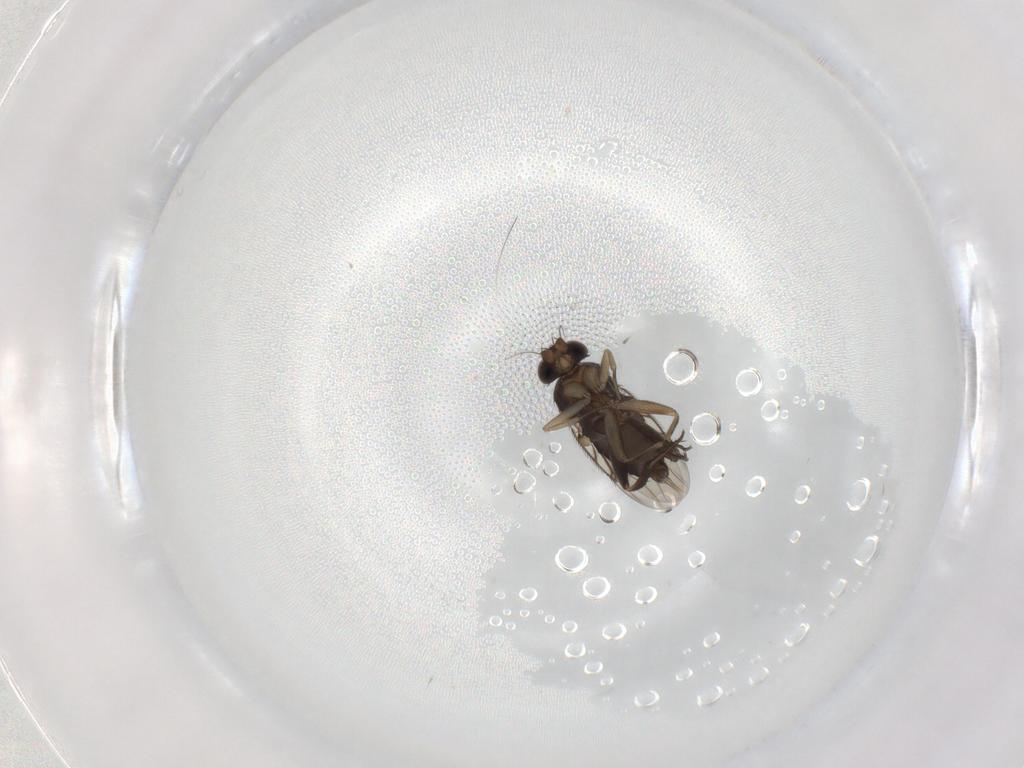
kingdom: Animalia
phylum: Arthropoda
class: Insecta
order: Diptera
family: Phoridae
